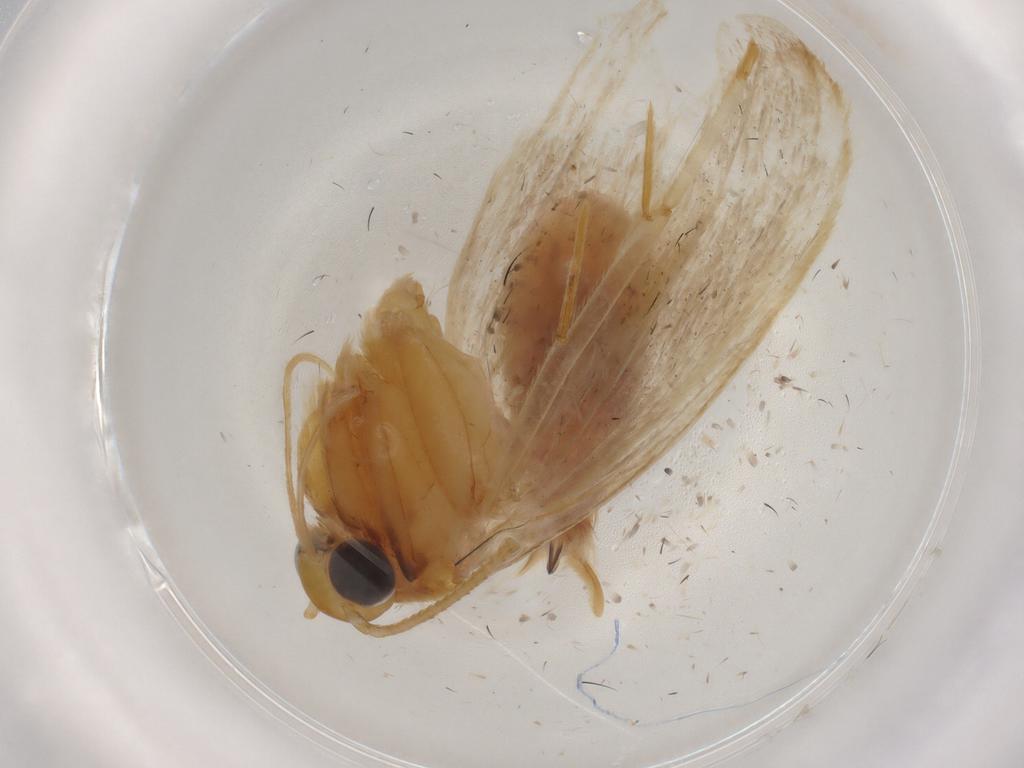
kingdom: Animalia
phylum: Arthropoda
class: Insecta
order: Lepidoptera
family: Gelechiidae
